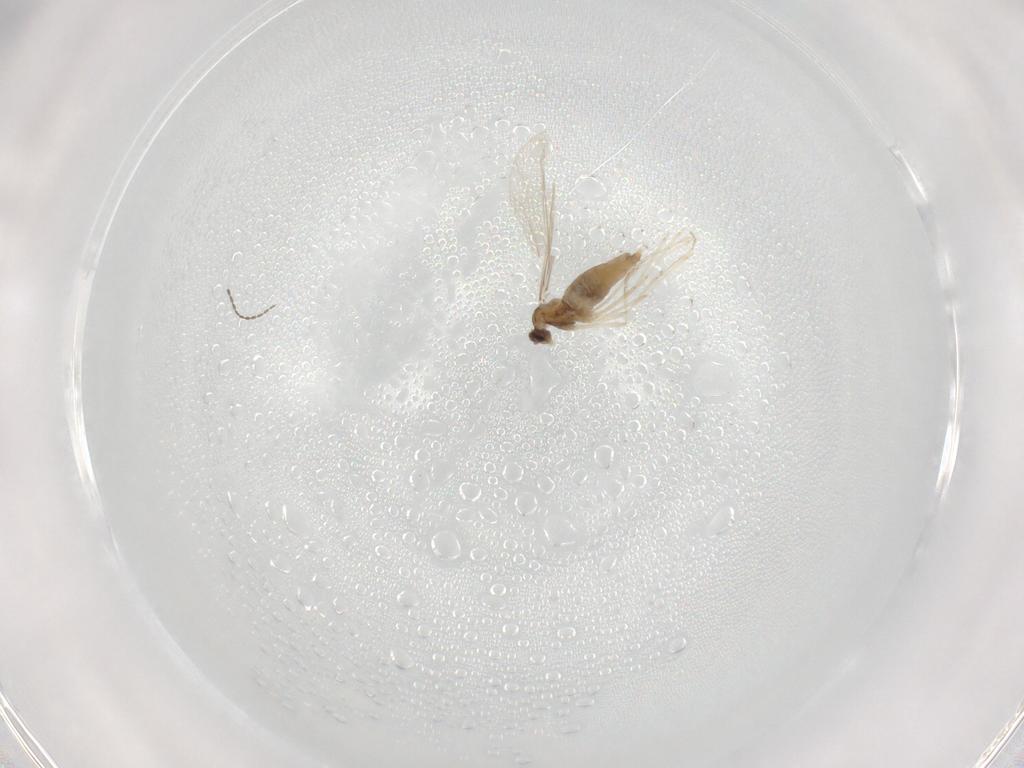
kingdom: Animalia
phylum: Arthropoda
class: Insecta
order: Diptera
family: Cecidomyiidae
